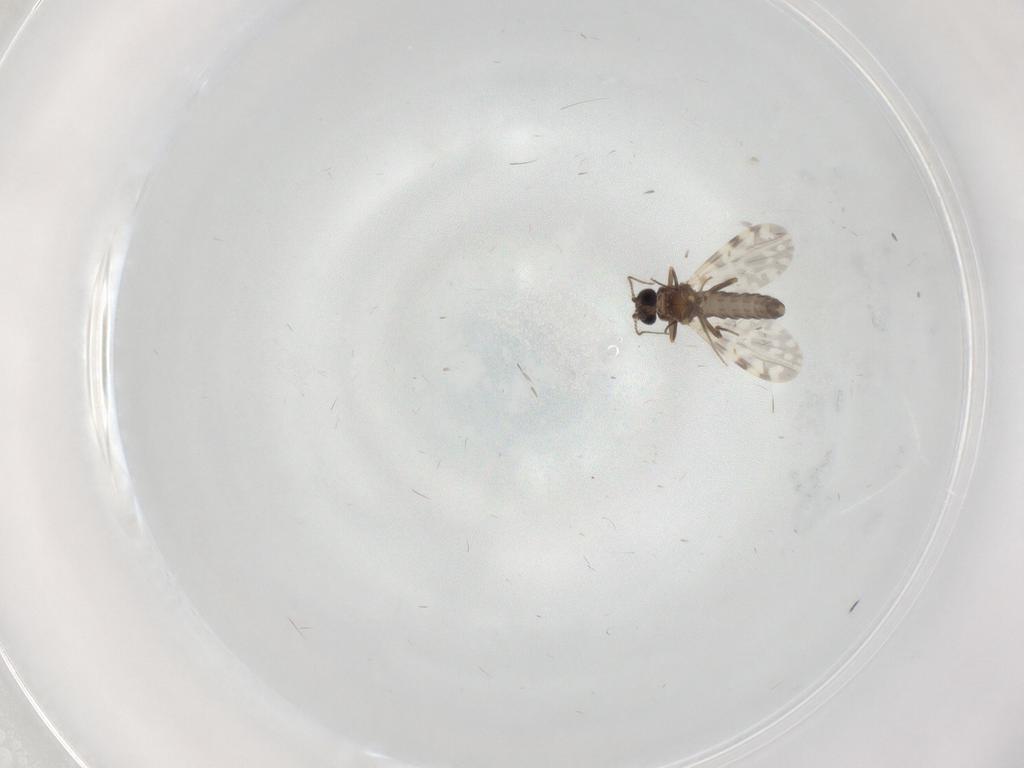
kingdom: Animalia
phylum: Arthropoda
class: Insecta
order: Diptera
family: Ceratopogonidae
